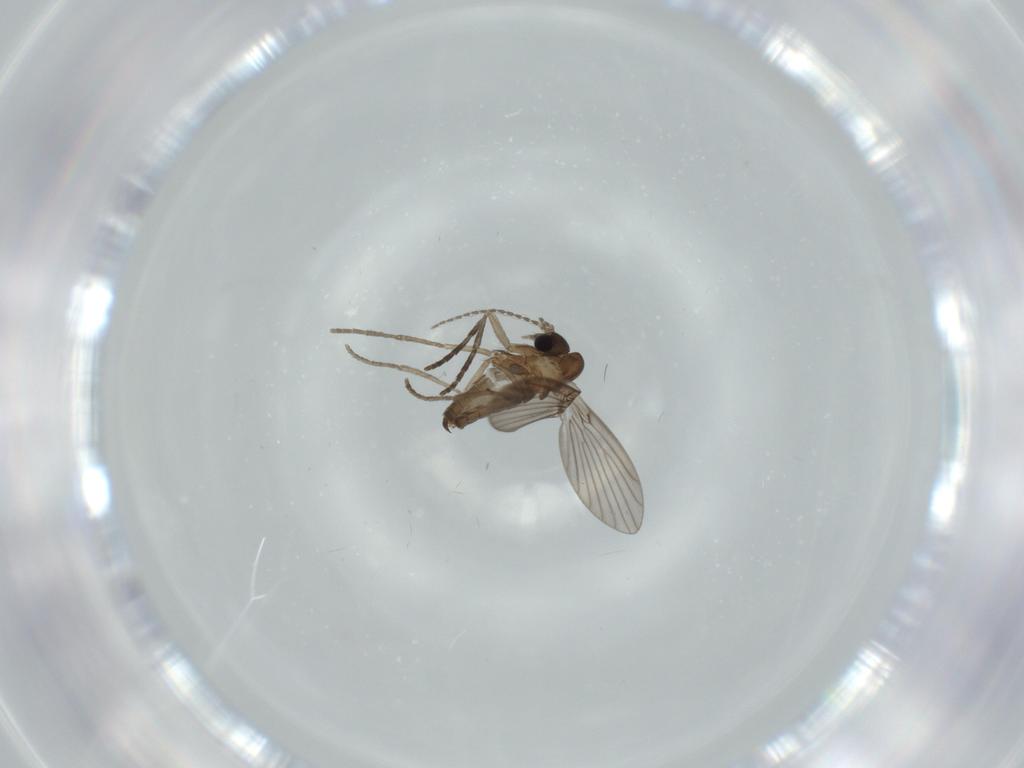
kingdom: Animalia
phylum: Arthropoda
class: Insecta
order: Diptera
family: Psychodidae
